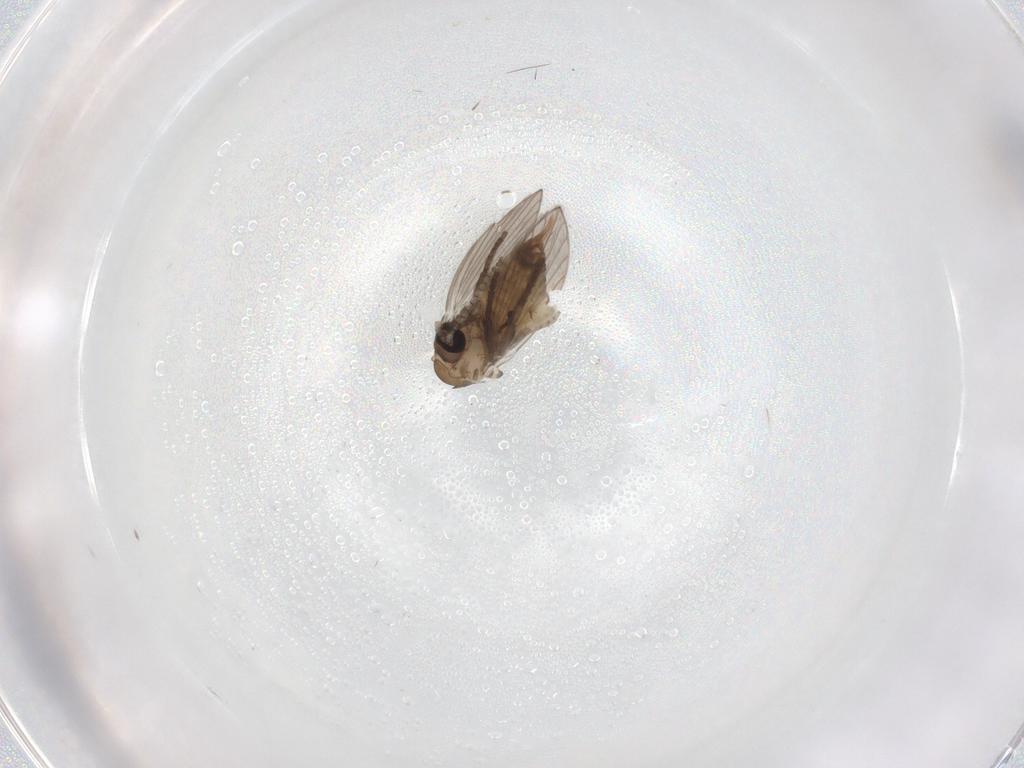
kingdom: Animalia
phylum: Arthropoda
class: Insecta
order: Diptera
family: Psychodidae
